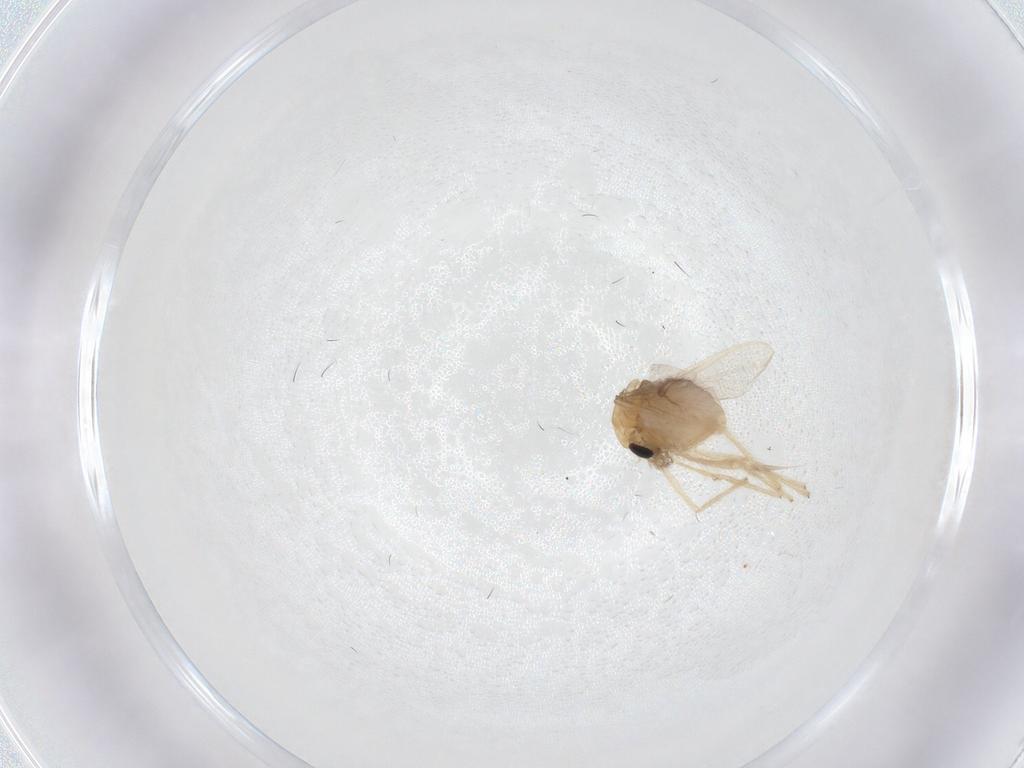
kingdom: Animalia
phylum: Arthropoda
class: Insecta
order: Diptera
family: Chironomidae
